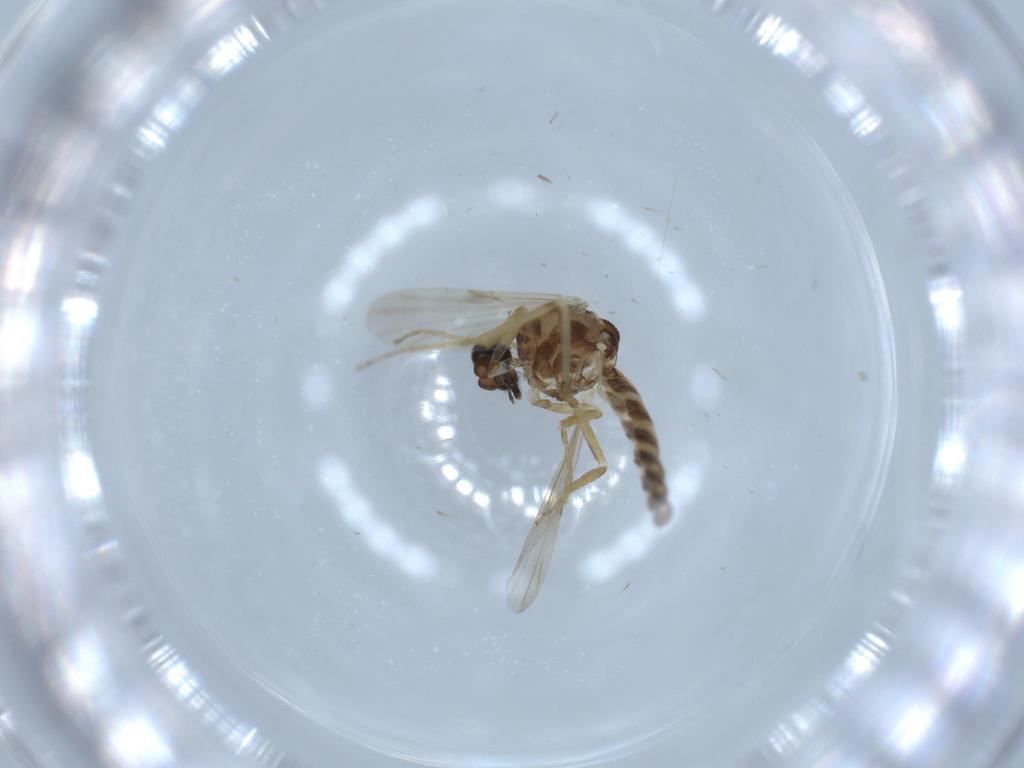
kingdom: Animalia
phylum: Arthropoda
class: Insecta
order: Diptera
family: Ceratopogonidae
